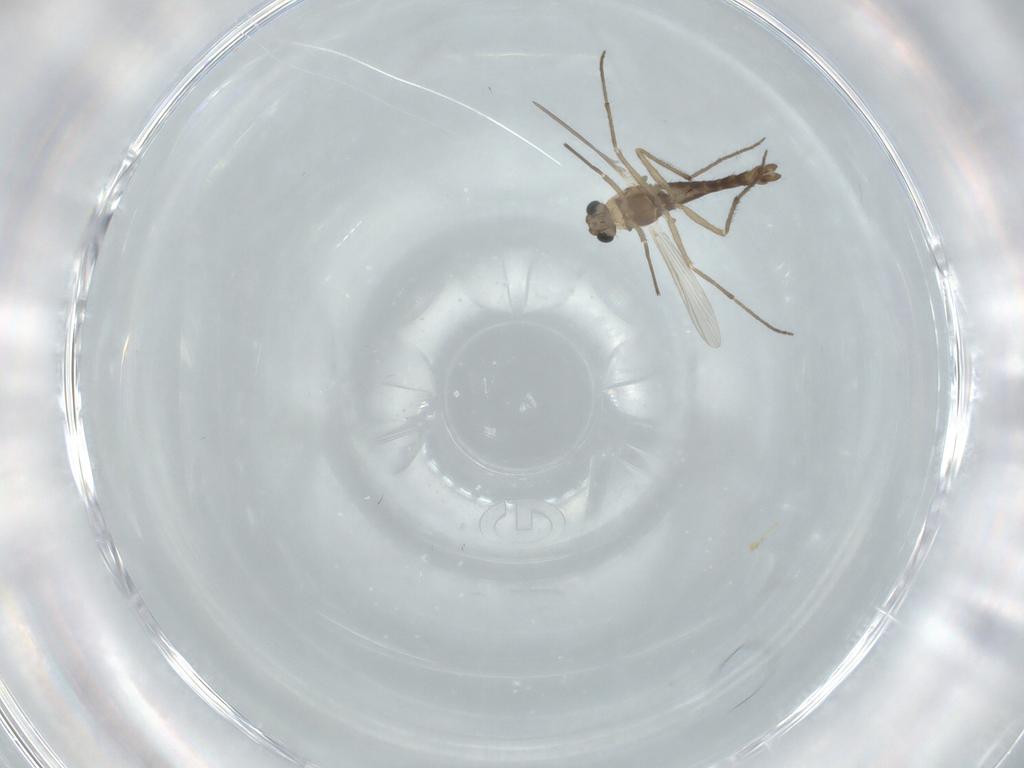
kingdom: Animalia
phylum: Arthropoda
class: Insecta
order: Diptera
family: Chironomidae
